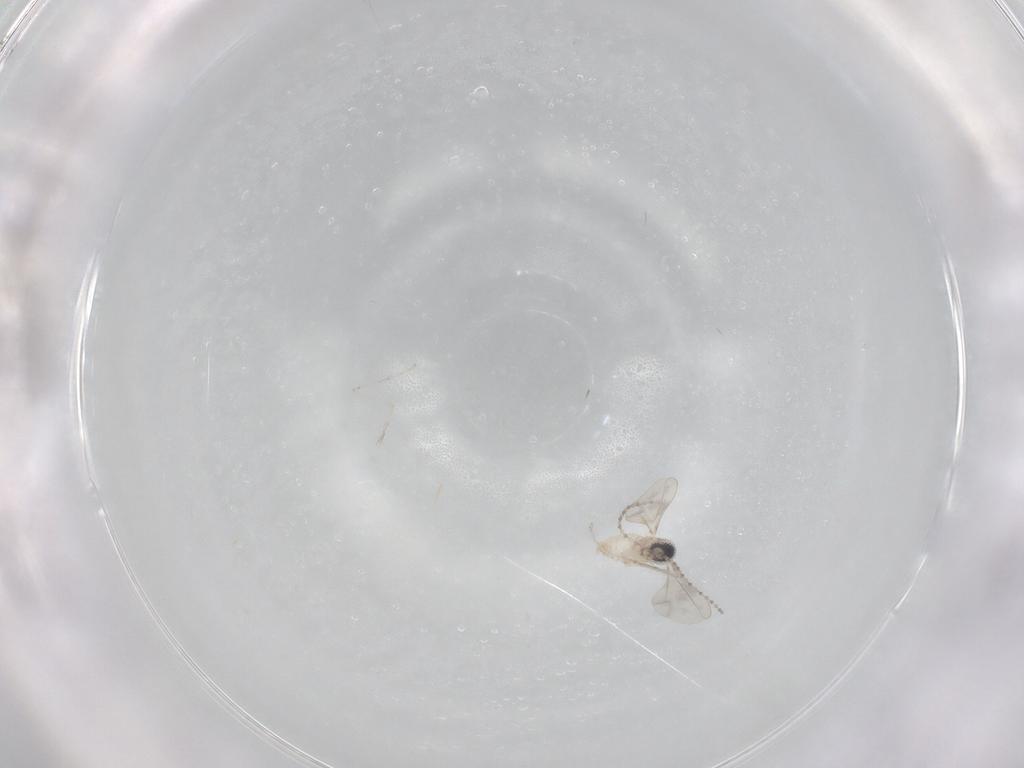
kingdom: Animalia
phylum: Arthropoda
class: Insecta
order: Diptera
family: Cecidomyiidae
